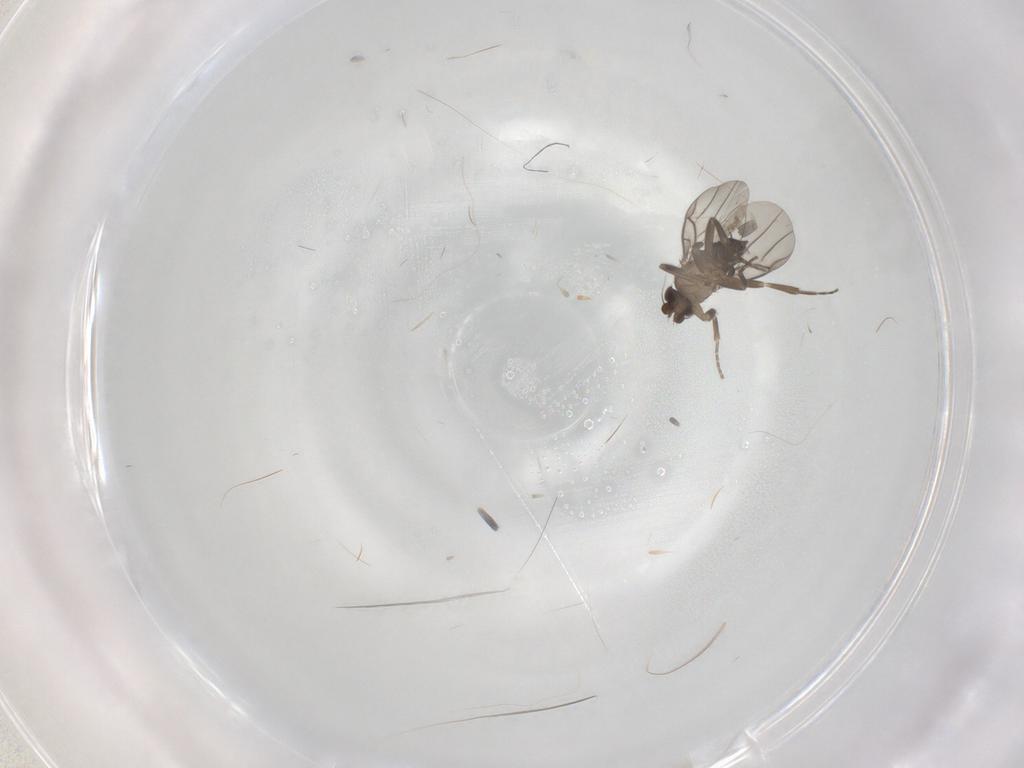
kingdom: Animalia
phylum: Arthropoda
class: Insecta
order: Diptera
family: Phoridae
